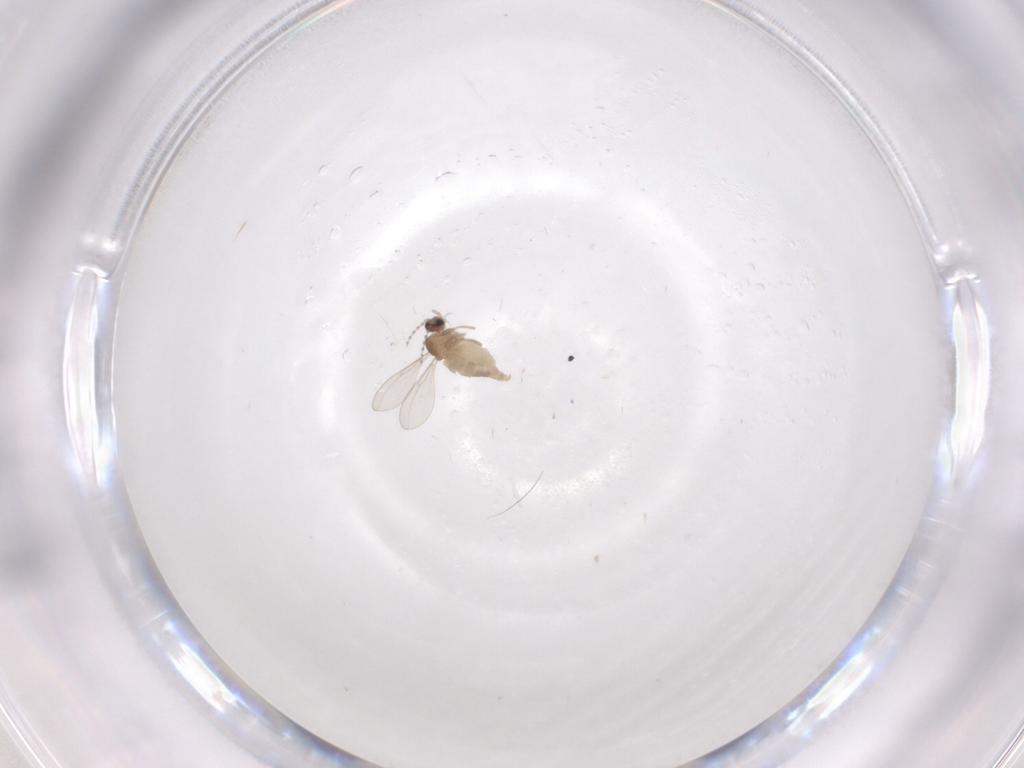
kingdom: Animalia
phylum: Arthropoda
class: Insecta
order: Diptera
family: Cecidomyiidae
